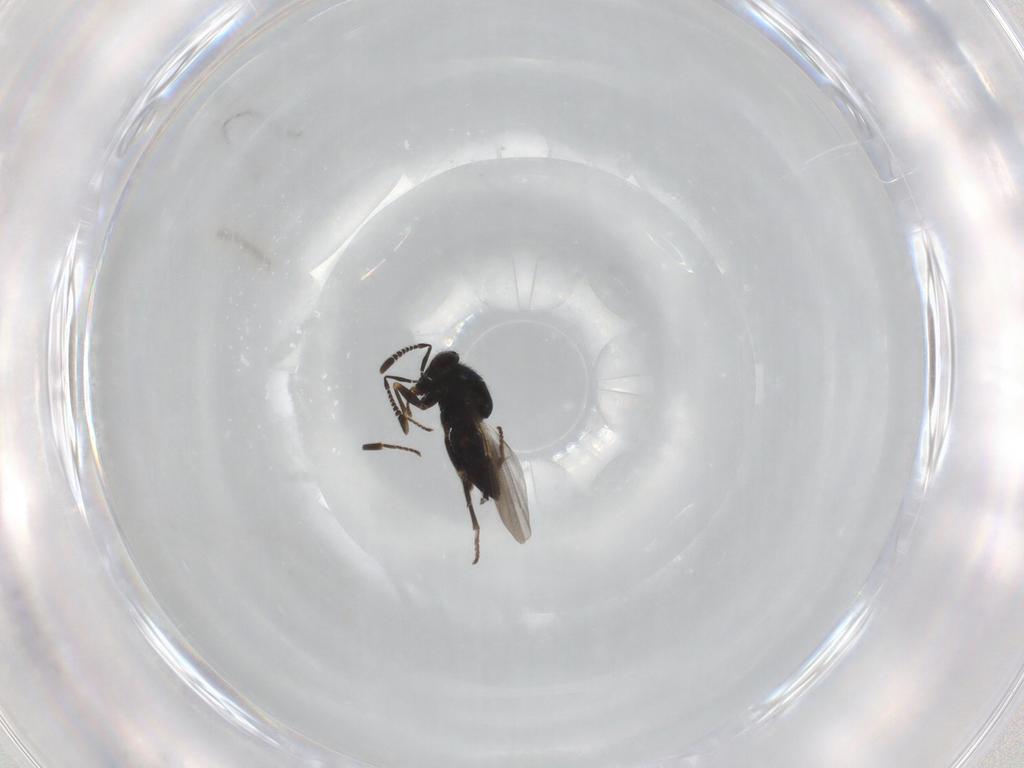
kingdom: Animalia
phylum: Arthropoda
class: Insecta
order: Hymenoptera
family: Encyrtidae
